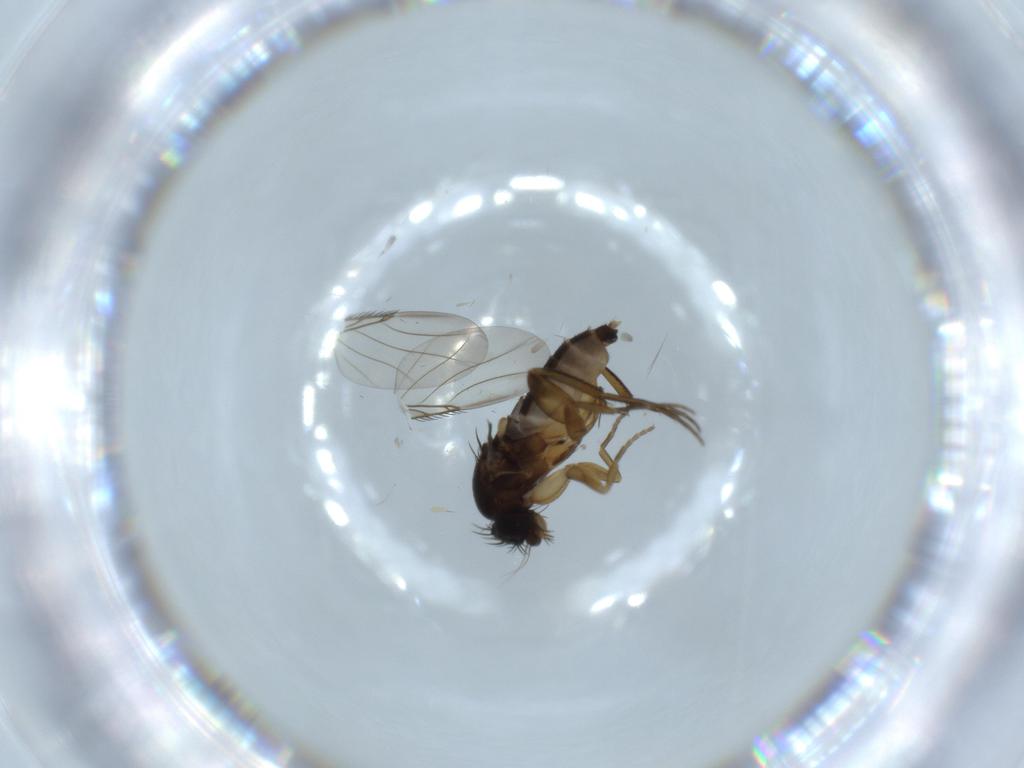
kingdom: Animalia
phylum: Arthropoda
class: Insecta
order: Diptera
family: Phoridae
